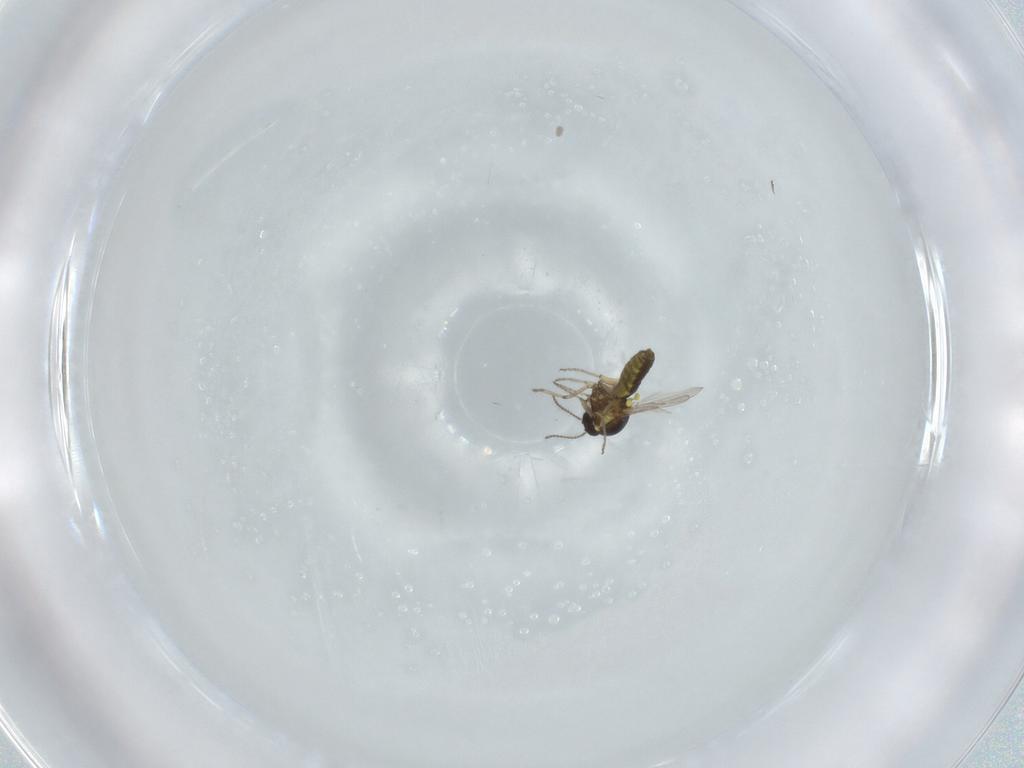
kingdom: Animalia
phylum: Arthropoda
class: Insecta
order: Diptera
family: Ceratopogonidae
